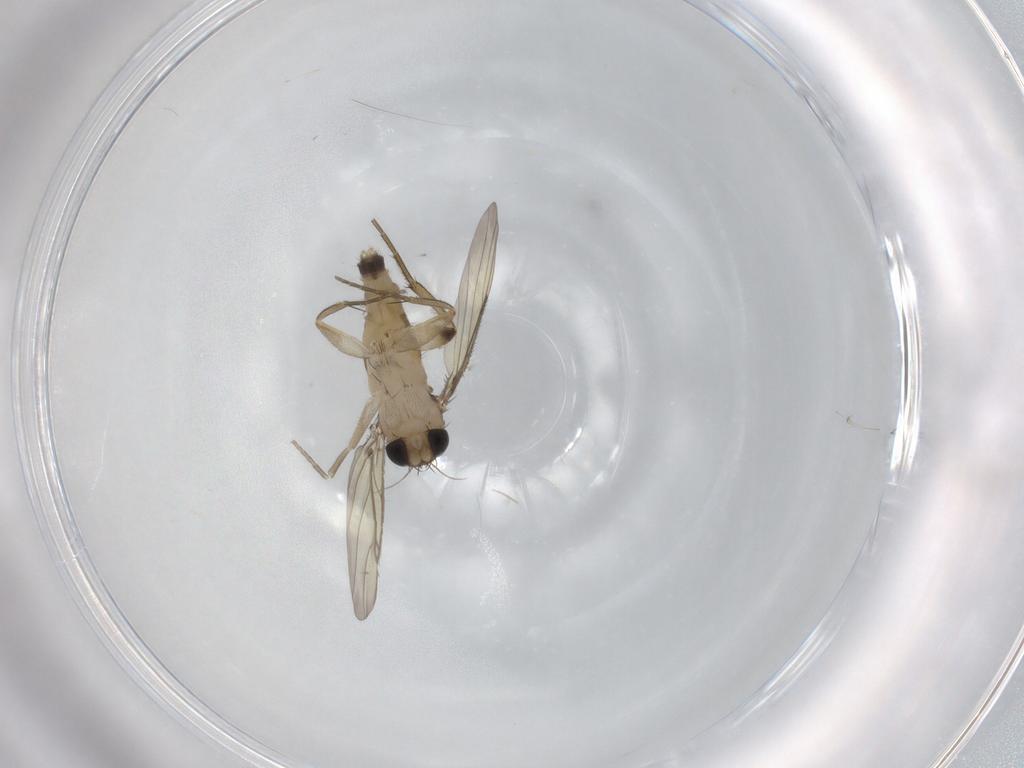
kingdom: Animalia
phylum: Arthropoda
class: Insecta
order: Diptera
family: Phoridae
